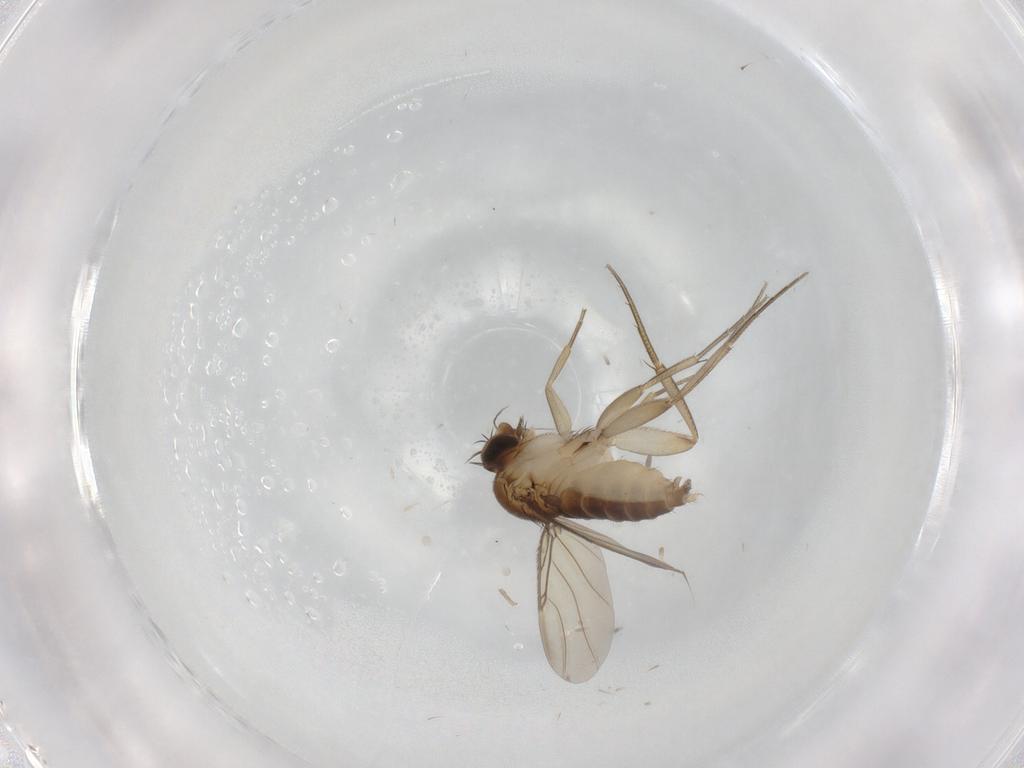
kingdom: Animalia
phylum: Arthropoda
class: Insecta
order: Diptera
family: Phoridae
